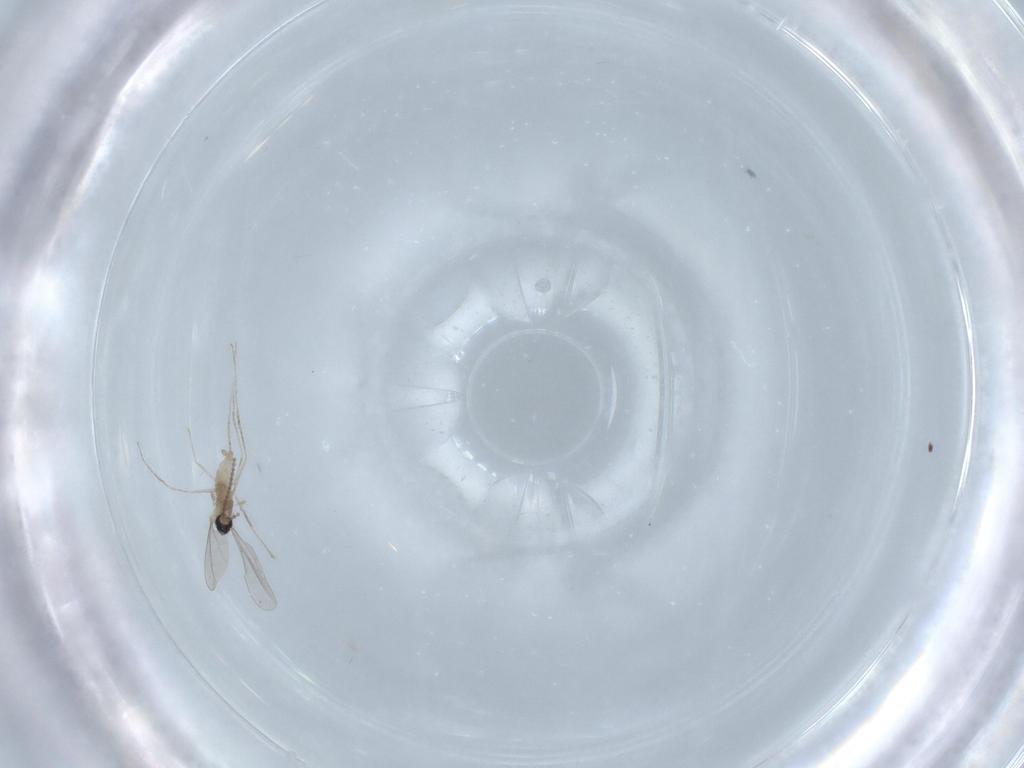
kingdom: Animalia
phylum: Arthropoda
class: Insecta
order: Diptera
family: Cecidomyiidae
